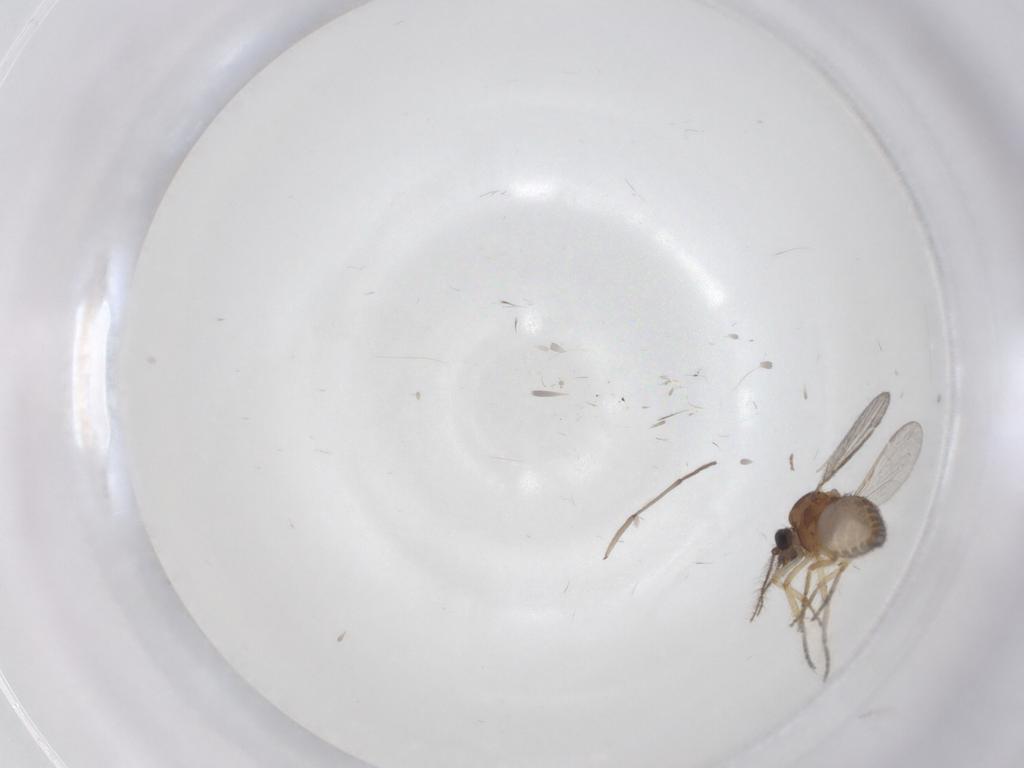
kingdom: Animalia
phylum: Arthropoda
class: Insecta
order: Diptera
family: Ceratopogonidae
